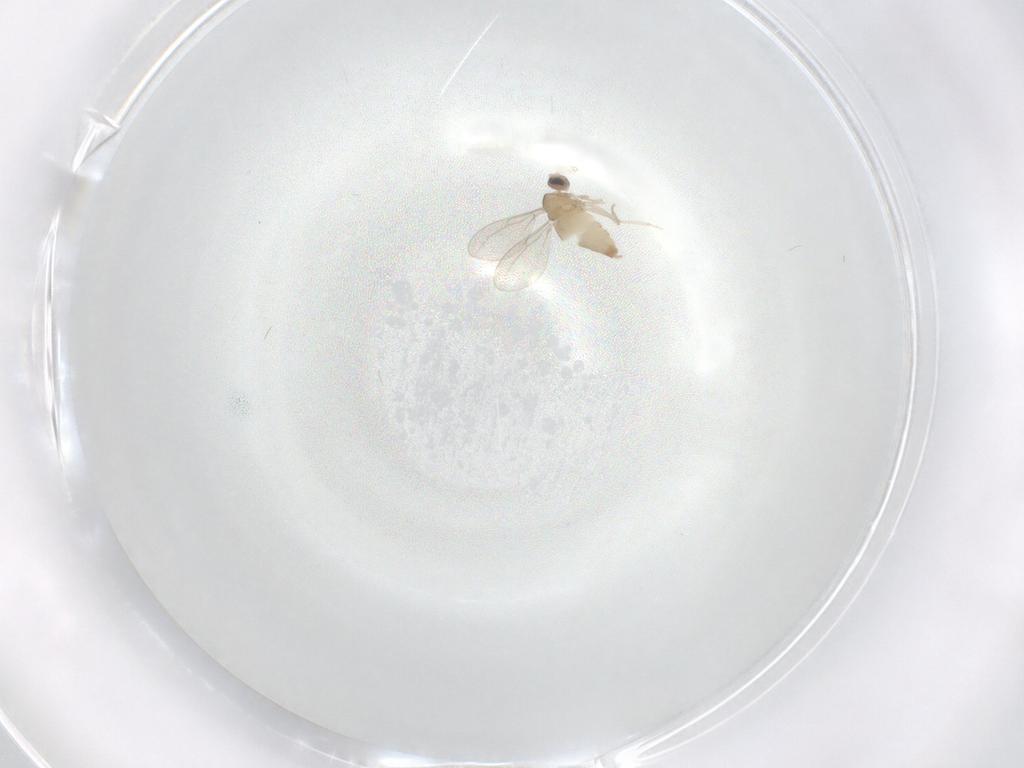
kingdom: Animalia
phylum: Arthropoda
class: Insecta
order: Diptera
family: Cecidomyiidae
